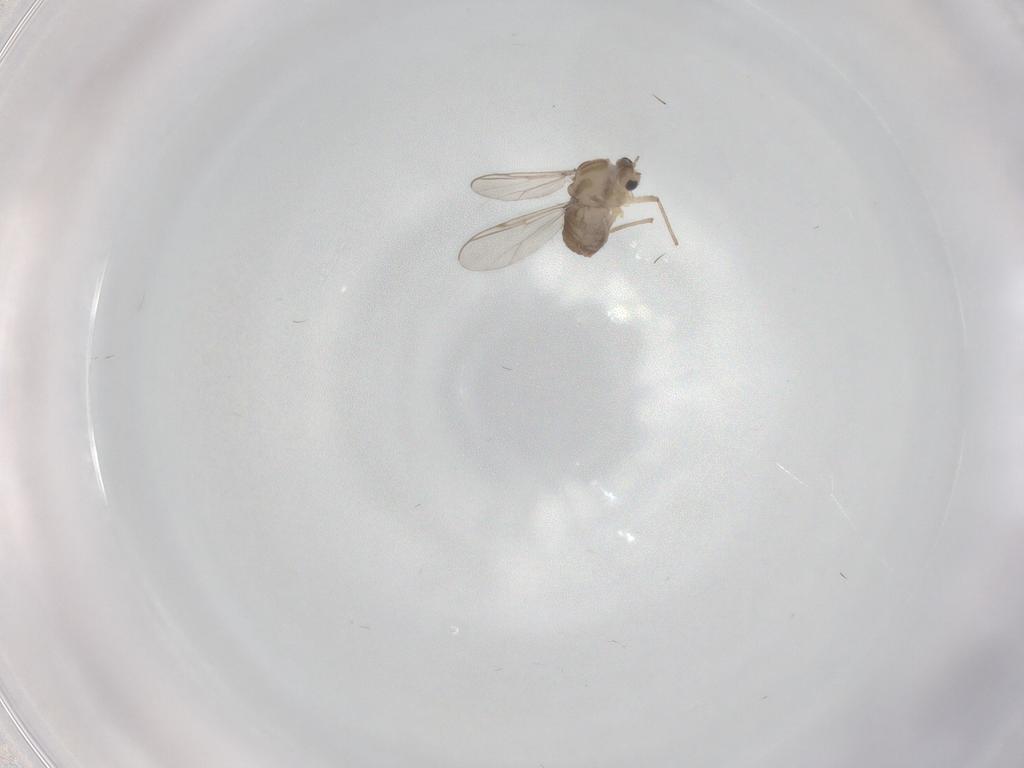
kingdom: Animalia
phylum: Arthropoda
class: Insecta
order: Diptera
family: Chironomidae
